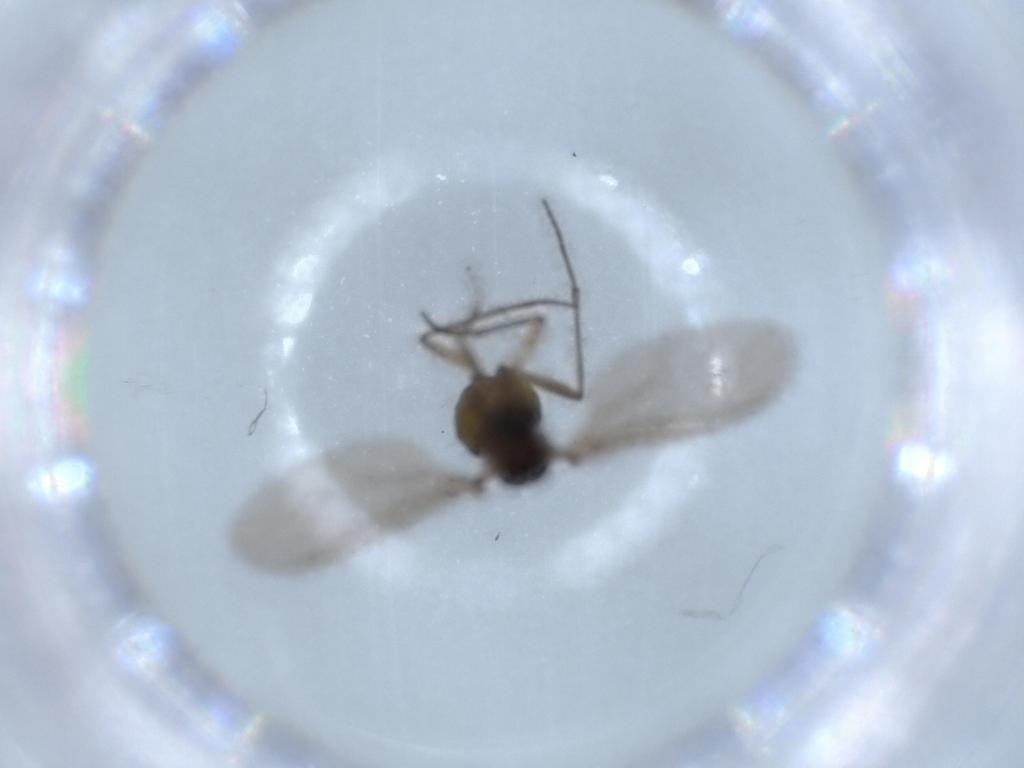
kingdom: Animalia
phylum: Arthropoda
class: Insecta
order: Diptera
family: Sciaridae
